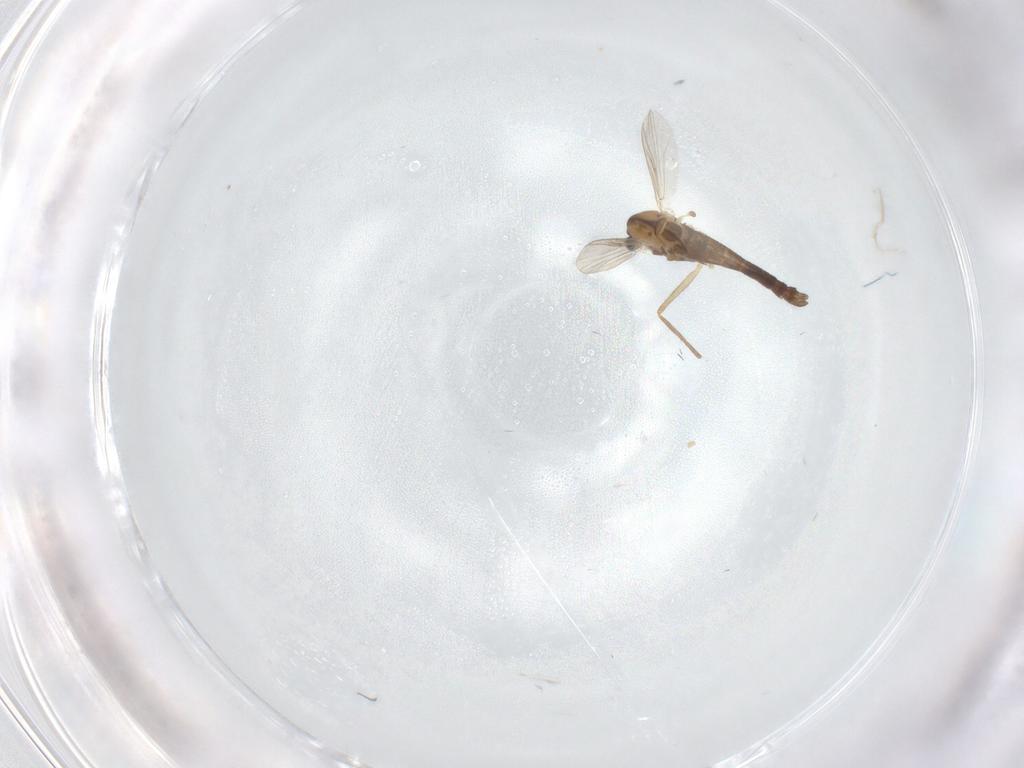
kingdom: Animalia
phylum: Arthropoda
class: Insecta
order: Diptera
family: Chironomidae
